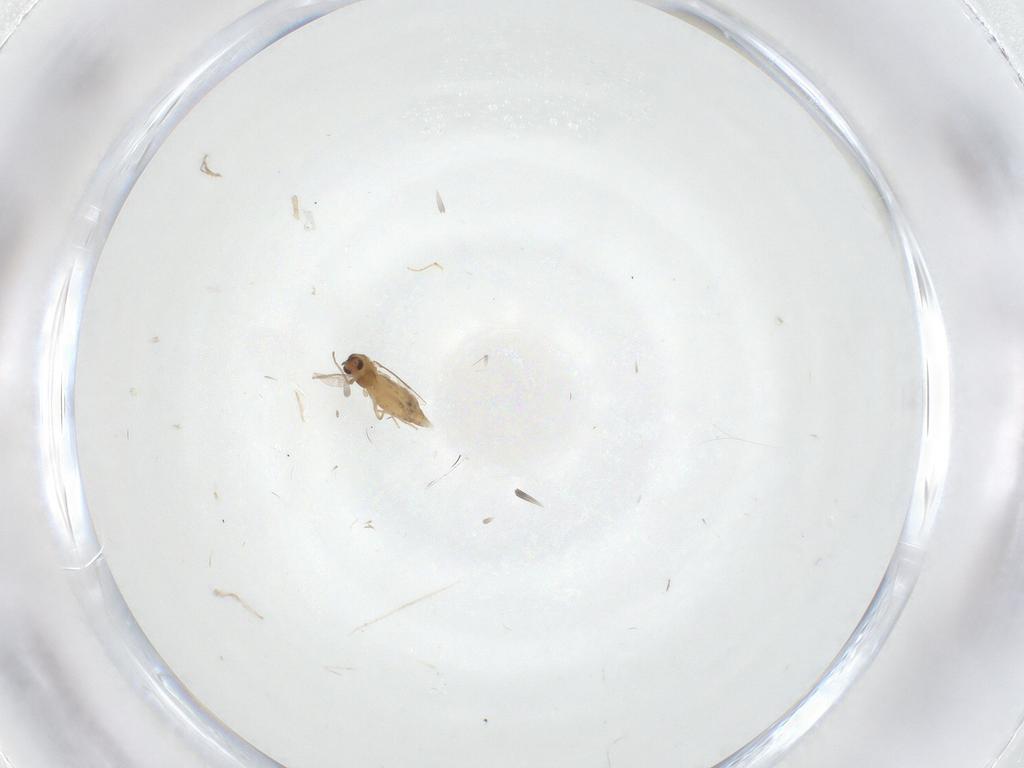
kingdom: Animalia
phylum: Arthropoda
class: Insecta
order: Diptera
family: Chironomidae
